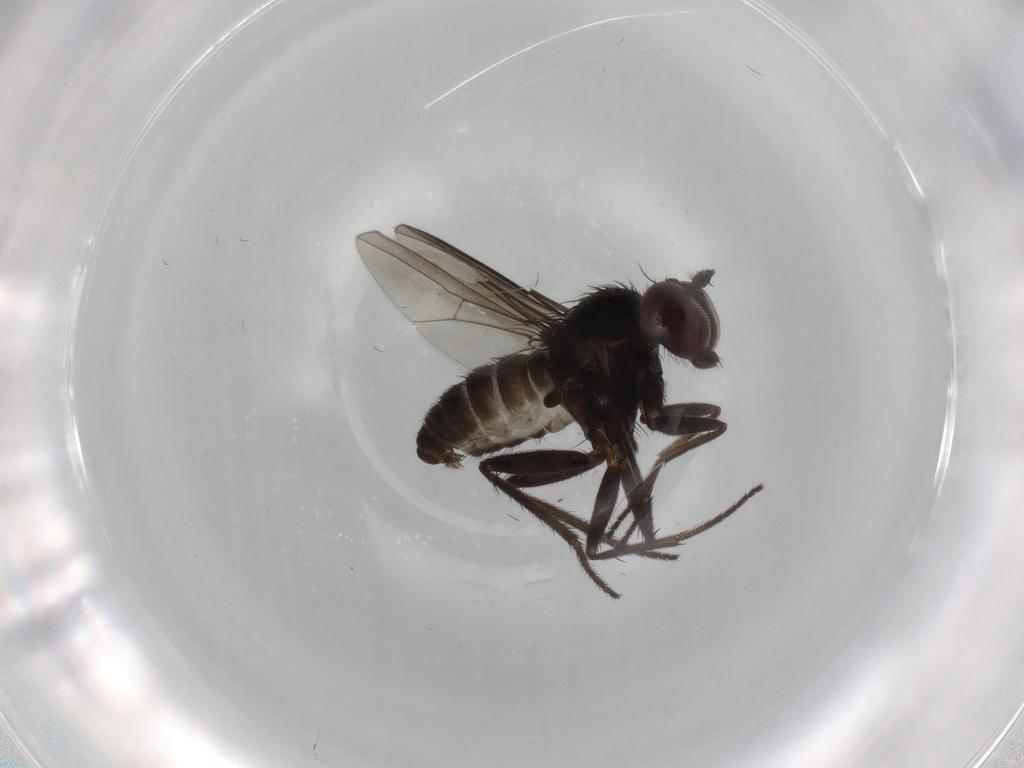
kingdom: Animalia
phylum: Arthropoda
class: Insecta
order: Diptera
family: Dolichopodidae
